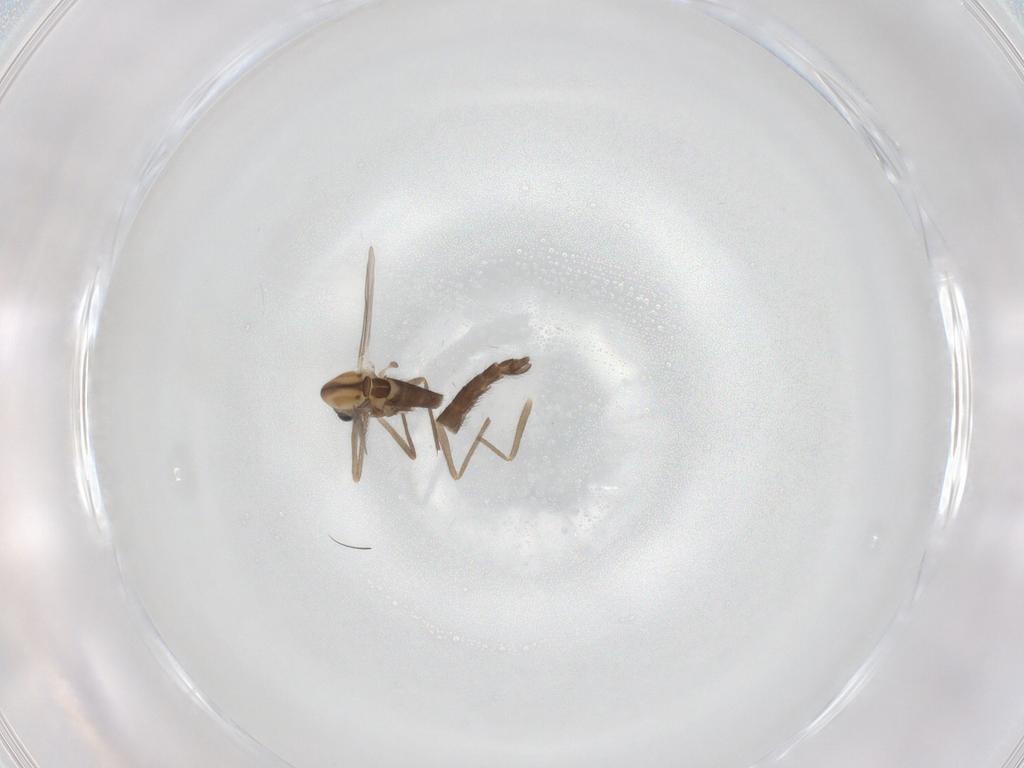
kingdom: Animalia
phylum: Arthropoda
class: Insecta
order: Diptera
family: Chironomidae
